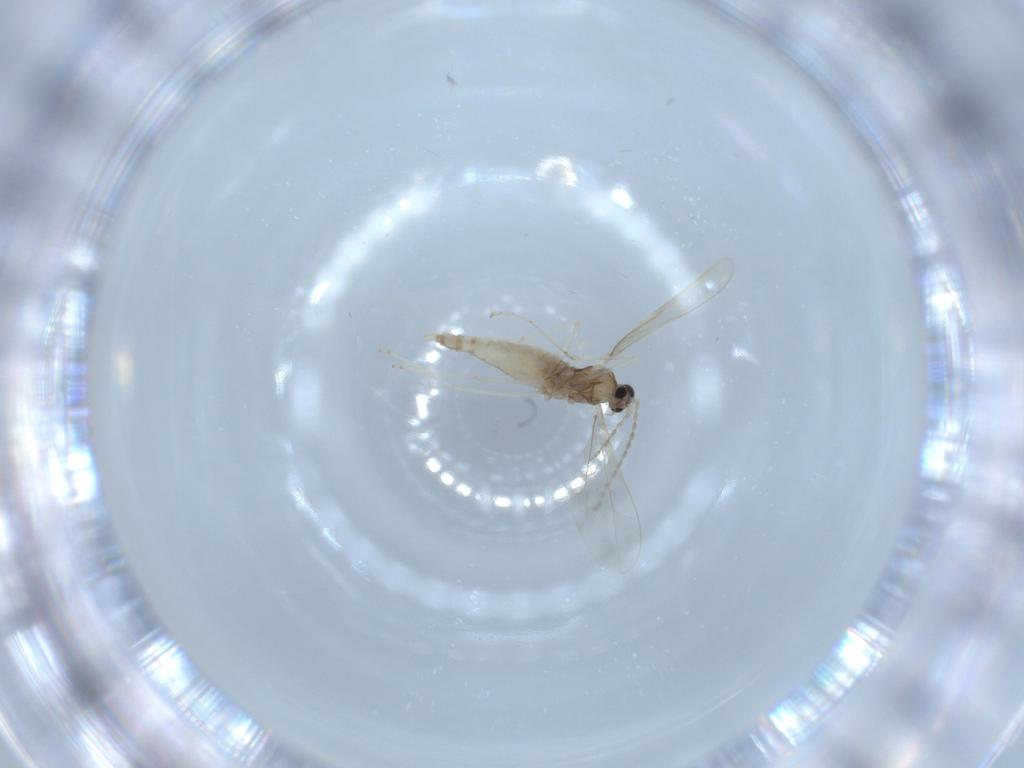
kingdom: Animalia
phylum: Arthropoda
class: Insecta
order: Diptera
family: Cecidomyiidae
